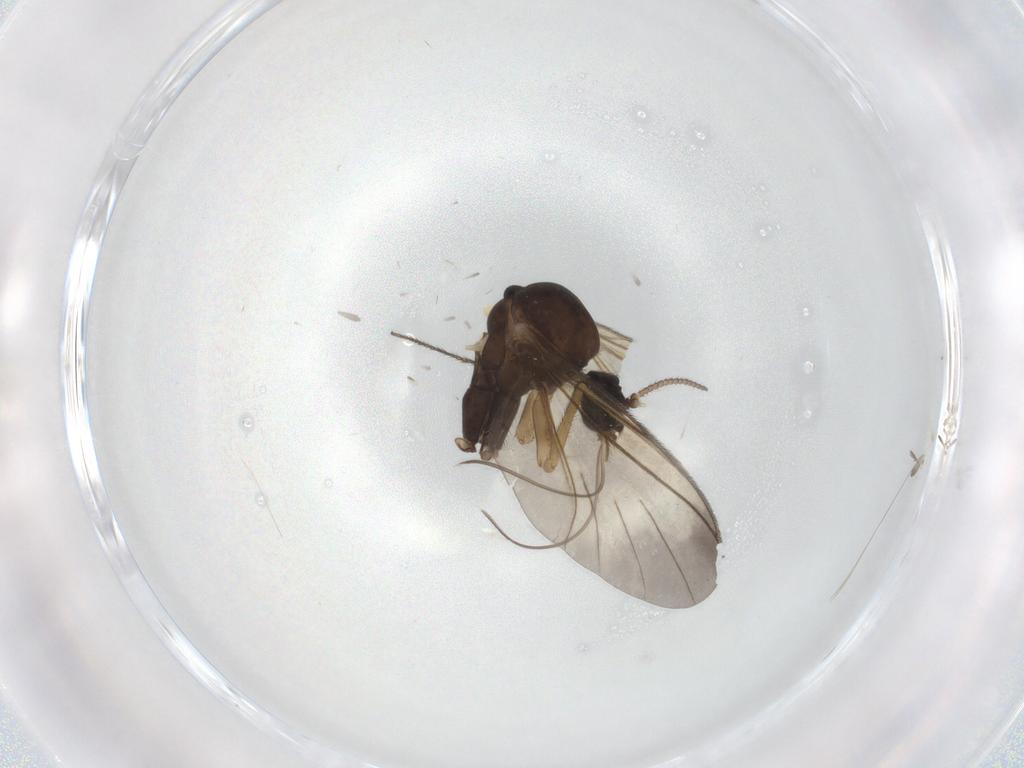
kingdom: Animalia
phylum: Arthropoda
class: Insecta
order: Diptera
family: Keroplatidae
